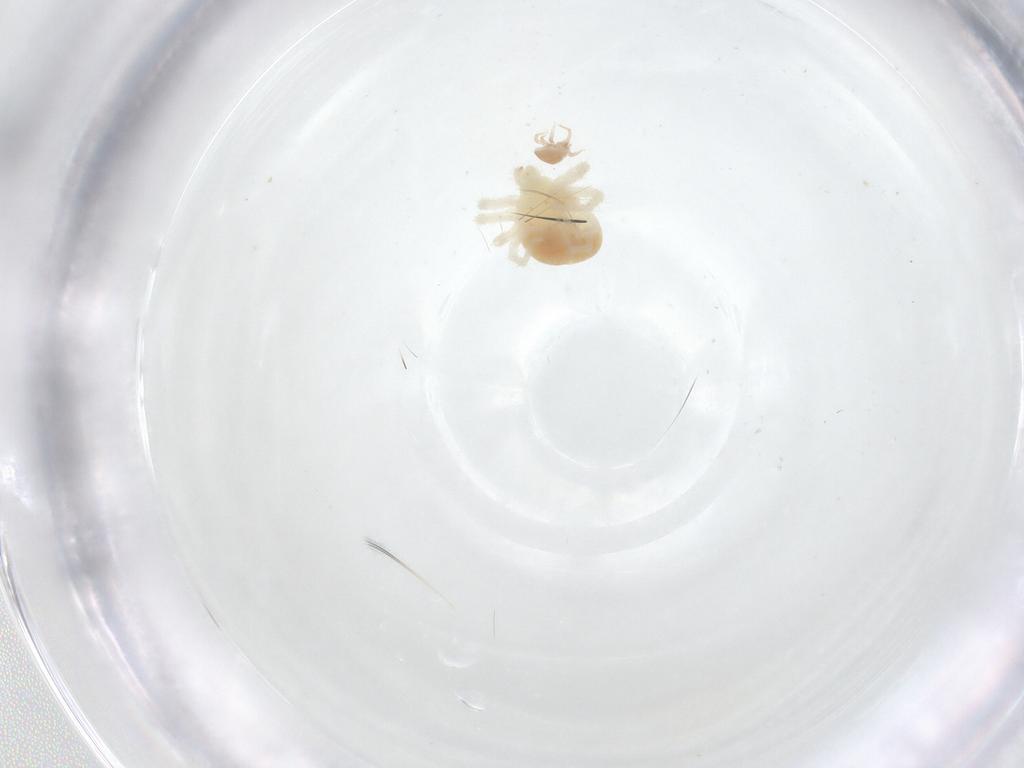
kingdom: Animalia
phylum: Arthropoda
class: Arachnida
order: Trombidiformes
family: Anystidae
